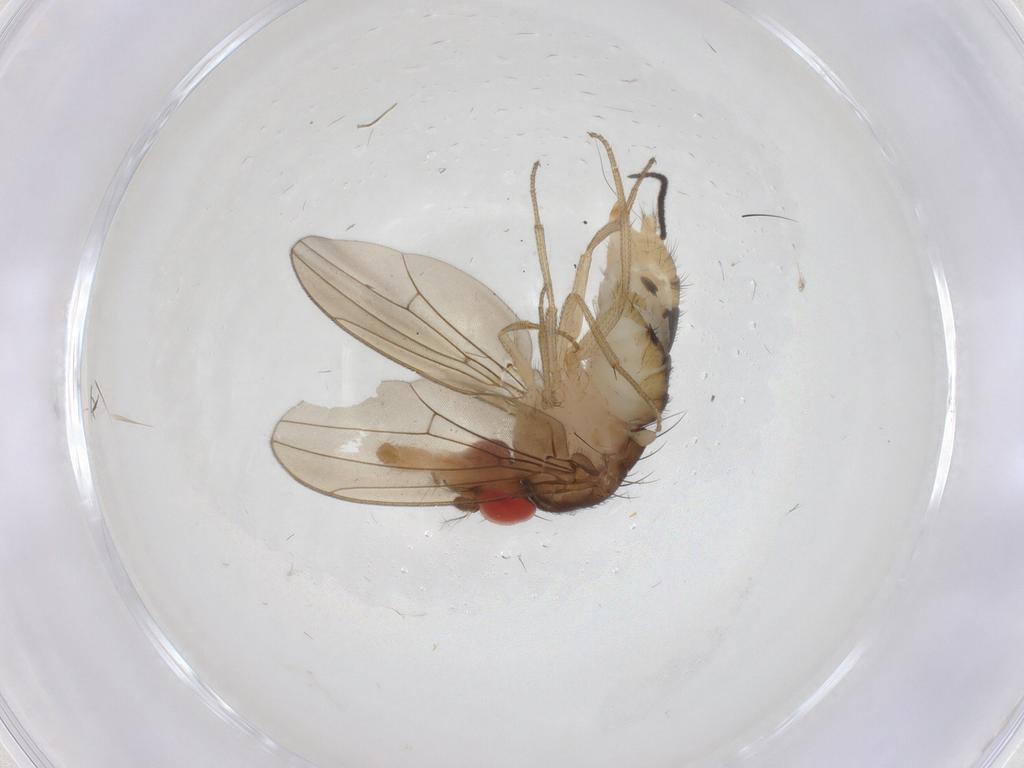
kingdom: Animalia
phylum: Arthropoda
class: Insecta
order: Diptera
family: Drosophilidae
